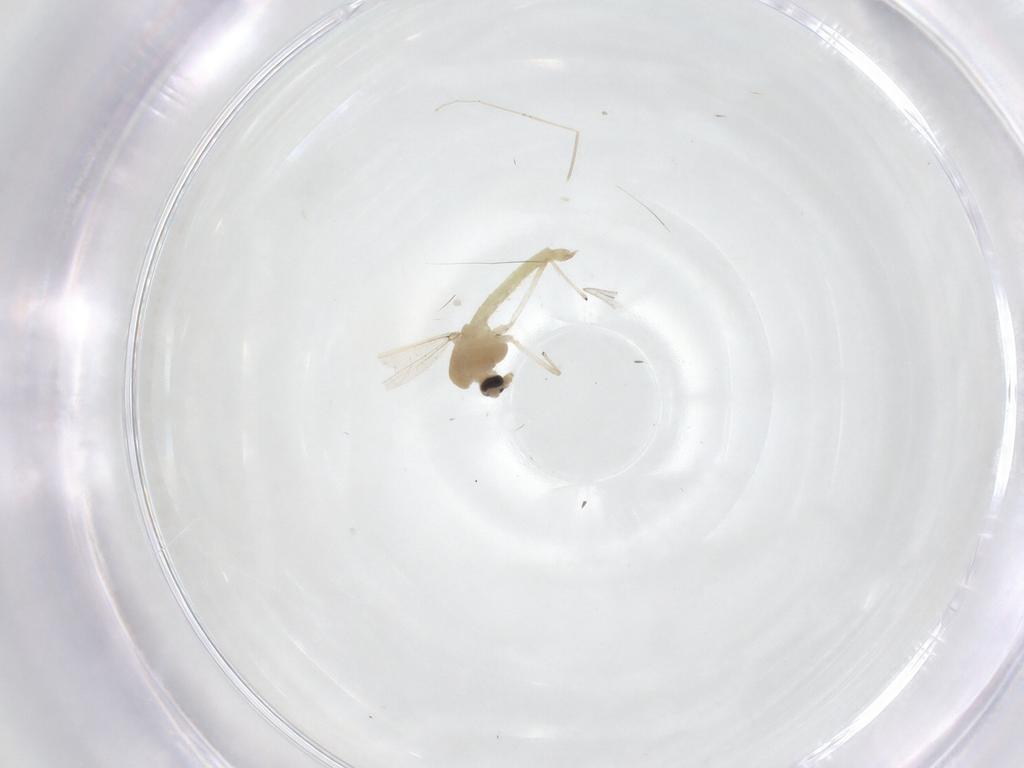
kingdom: Animalia
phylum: Arthropoda
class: Insecta
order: Diptera
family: Chironomidae
